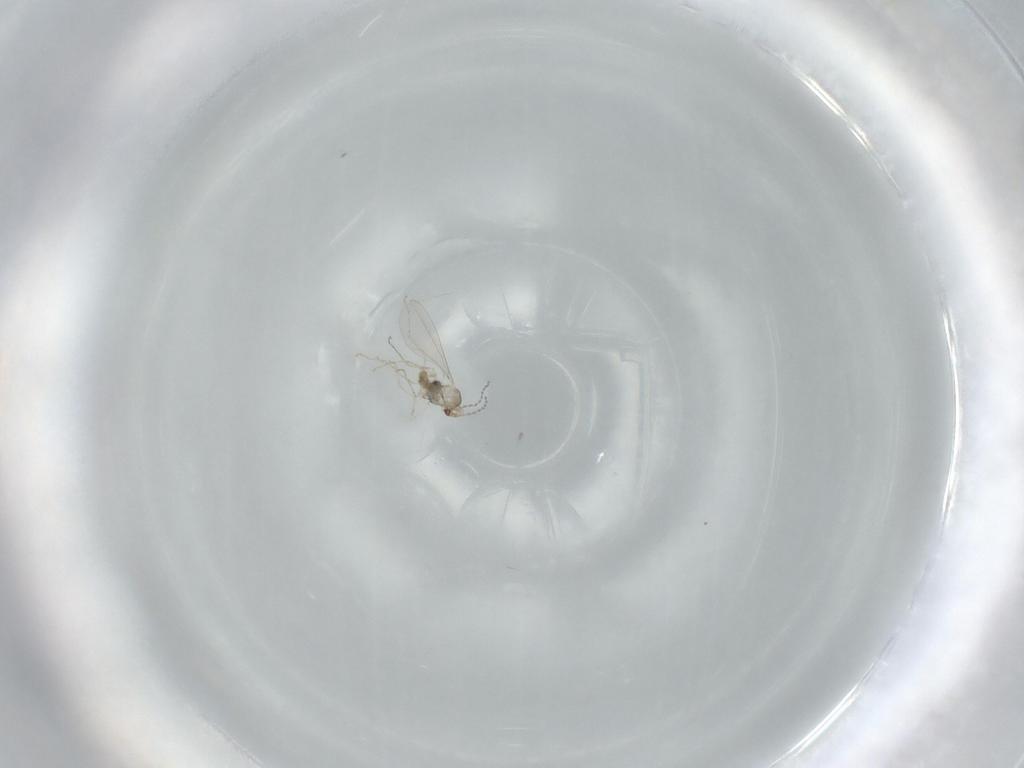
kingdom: Animalia
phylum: Arthropoda
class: Insecta
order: Diptera
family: Cecidomyiidae
